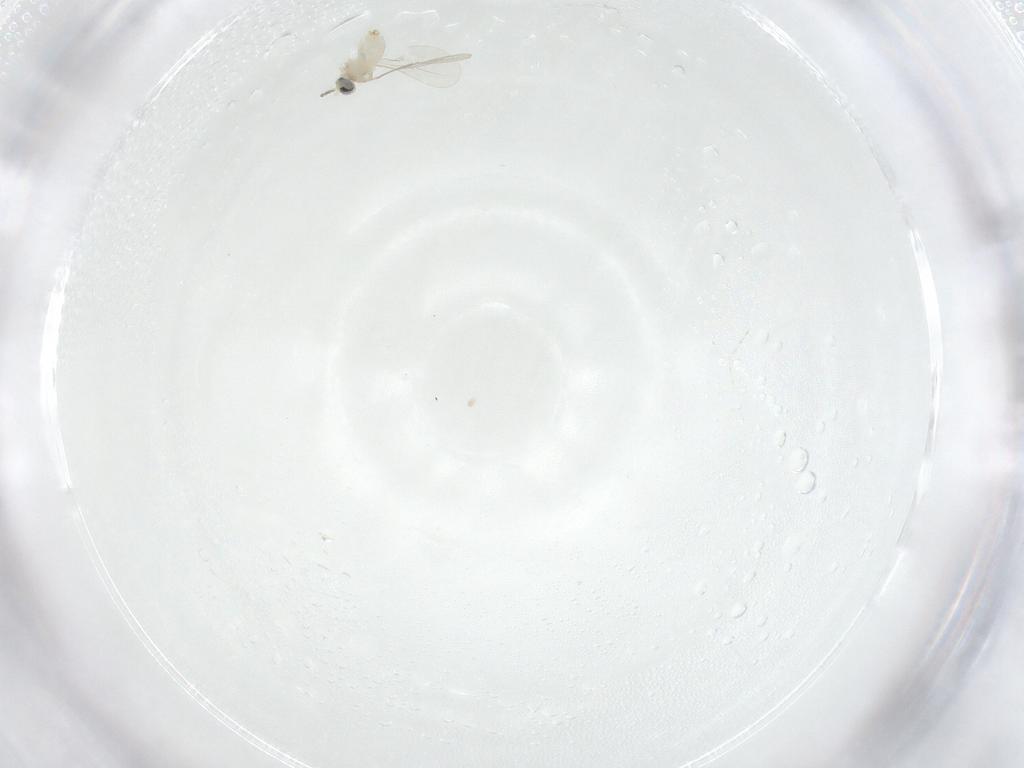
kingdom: Animalia
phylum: Arthropoda
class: Insecta
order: Diptera
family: Cecidomyiidae
